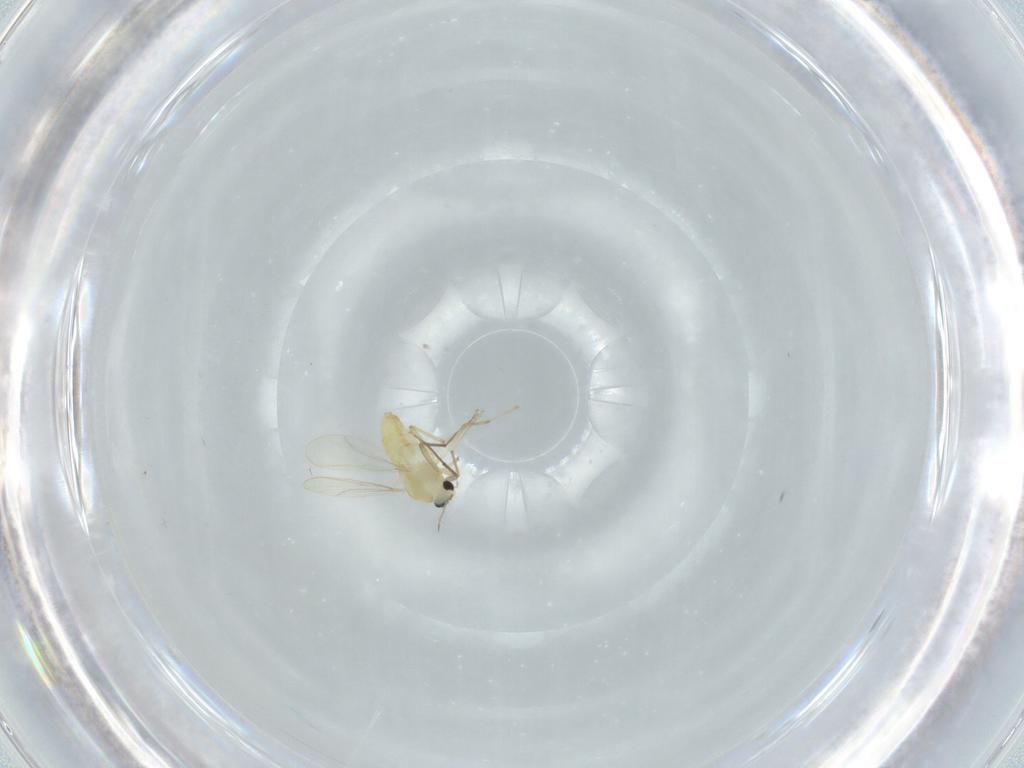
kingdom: Animalia
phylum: Arthropoda
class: Insecta
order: Diptera
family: Chironomidae
